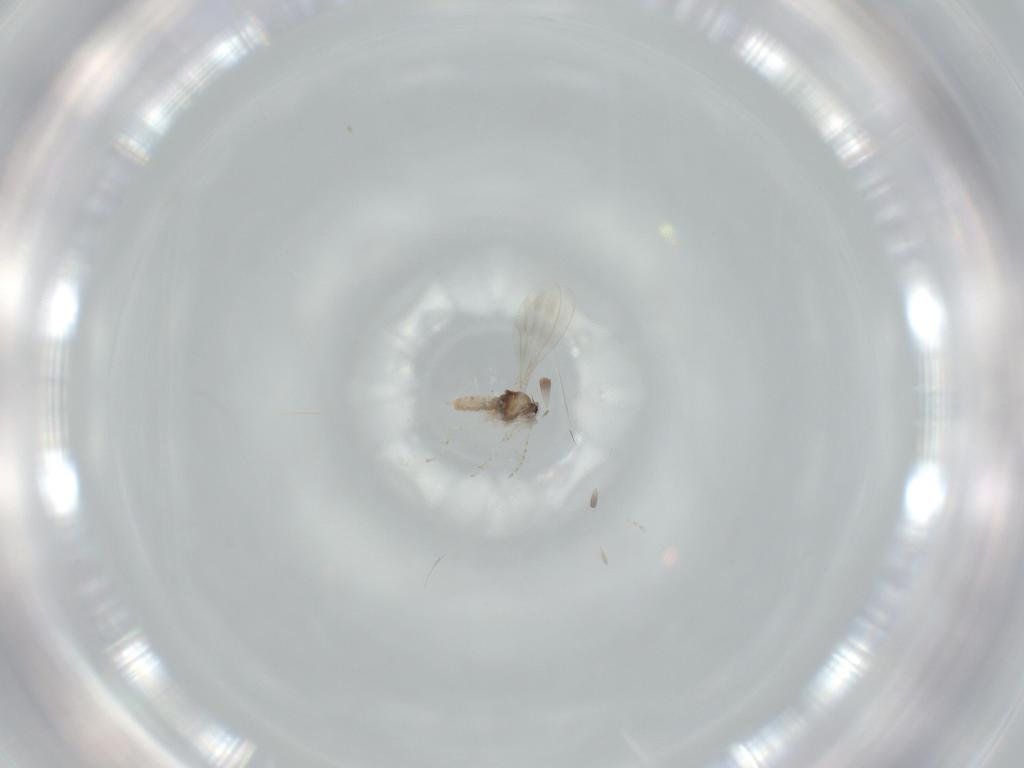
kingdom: Animalia
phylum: Arthropoda
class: Insecta
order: Diptera
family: Cecidomyiidae
